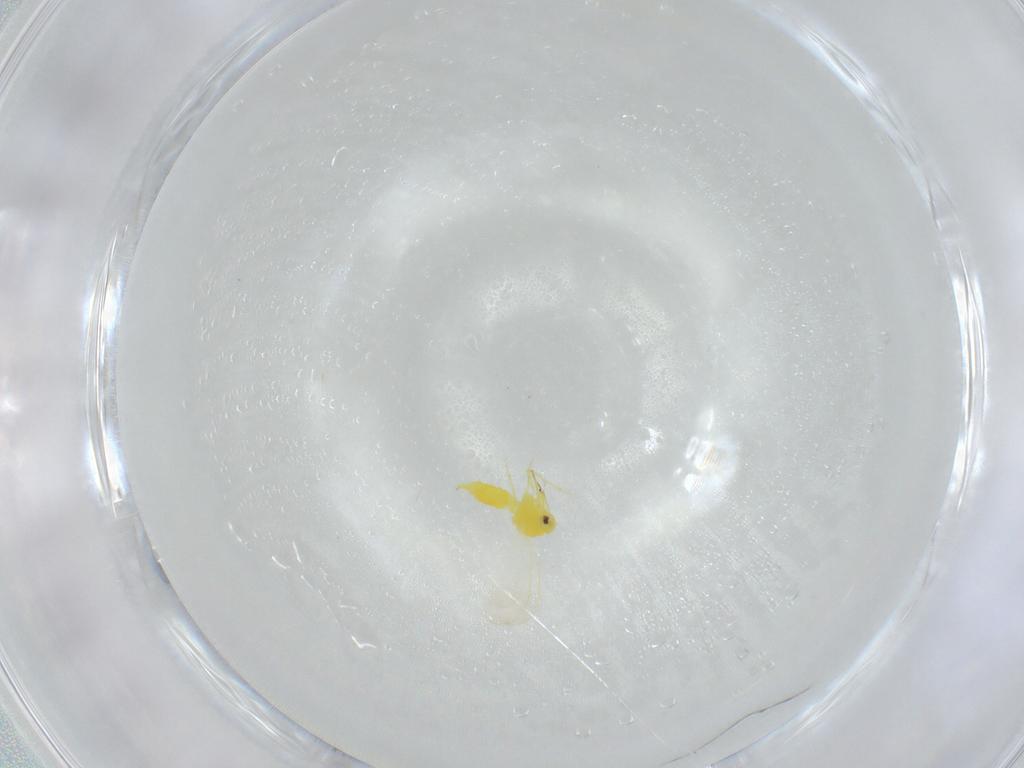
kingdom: Animalia
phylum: Arthropoda
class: Insecta
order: Hemiptera
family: Aleyrodidae
